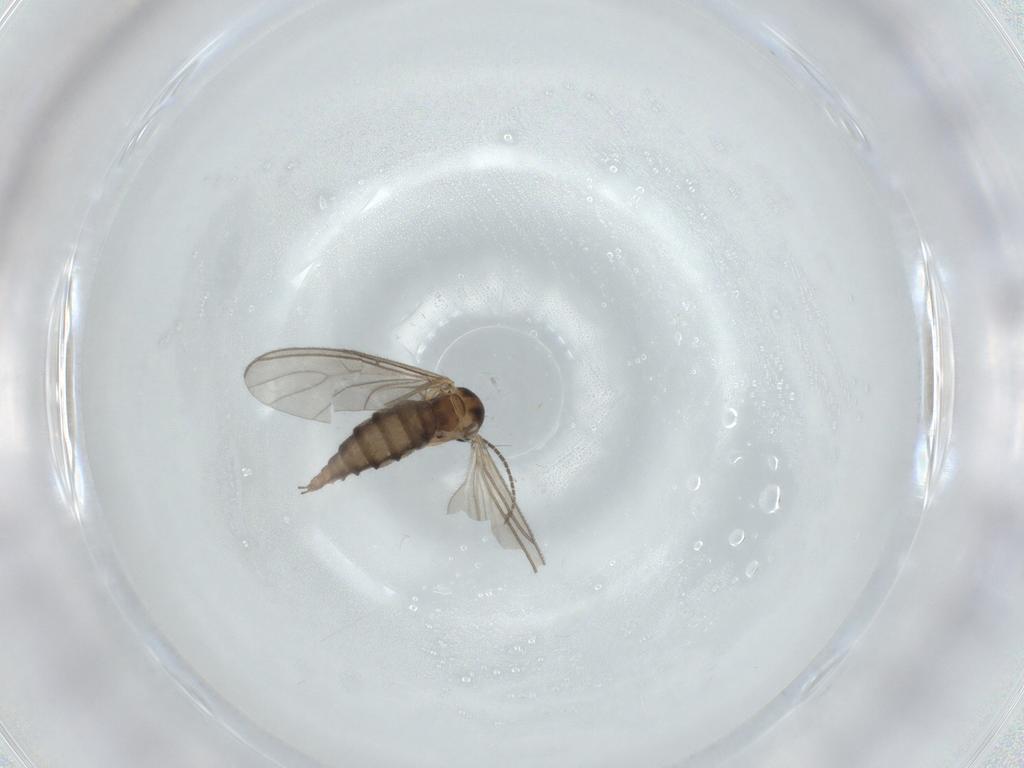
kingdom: Animalia
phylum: Arthropoda
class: Insecta
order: Diptera
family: Sciaridae
